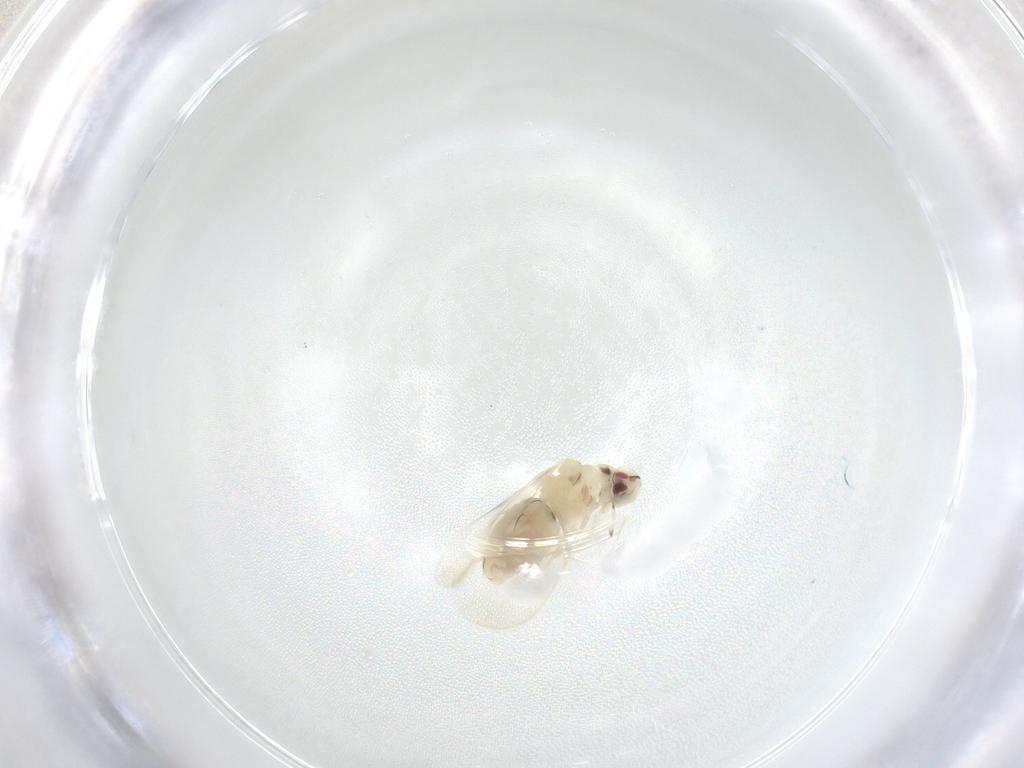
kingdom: Animalia
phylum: Arthropoda
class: Insecta
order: Hemiptera
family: Aleyrodidae
